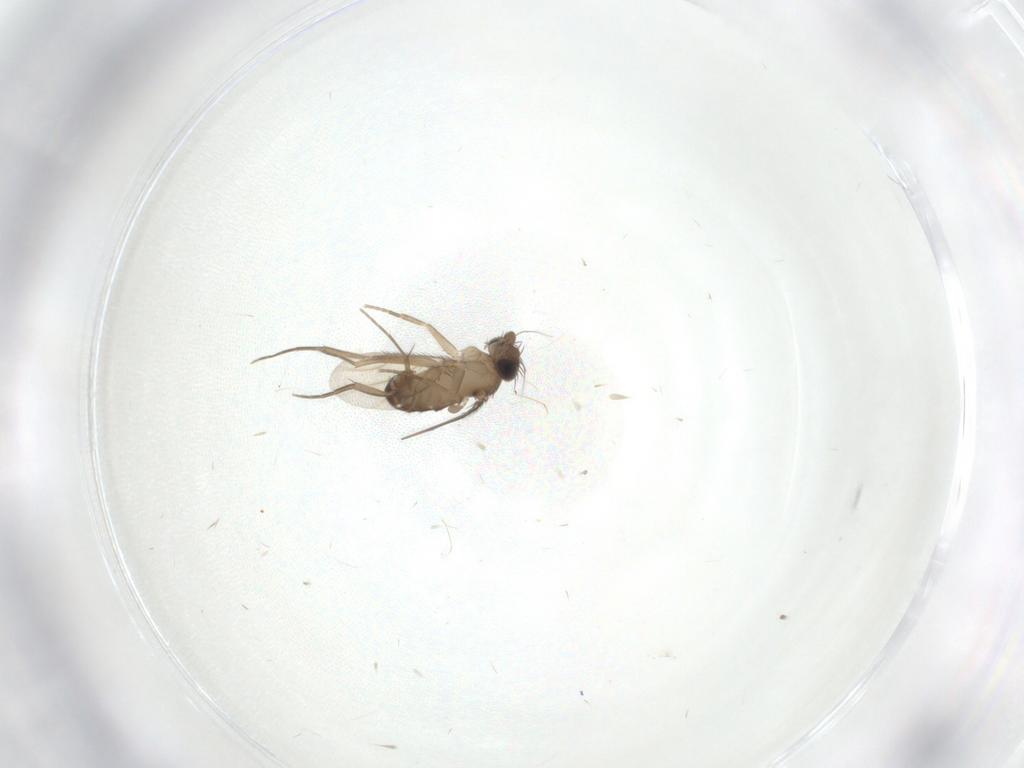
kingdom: Animalia
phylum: Arthropoda
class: Insecta
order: Diptera
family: Phoridae
